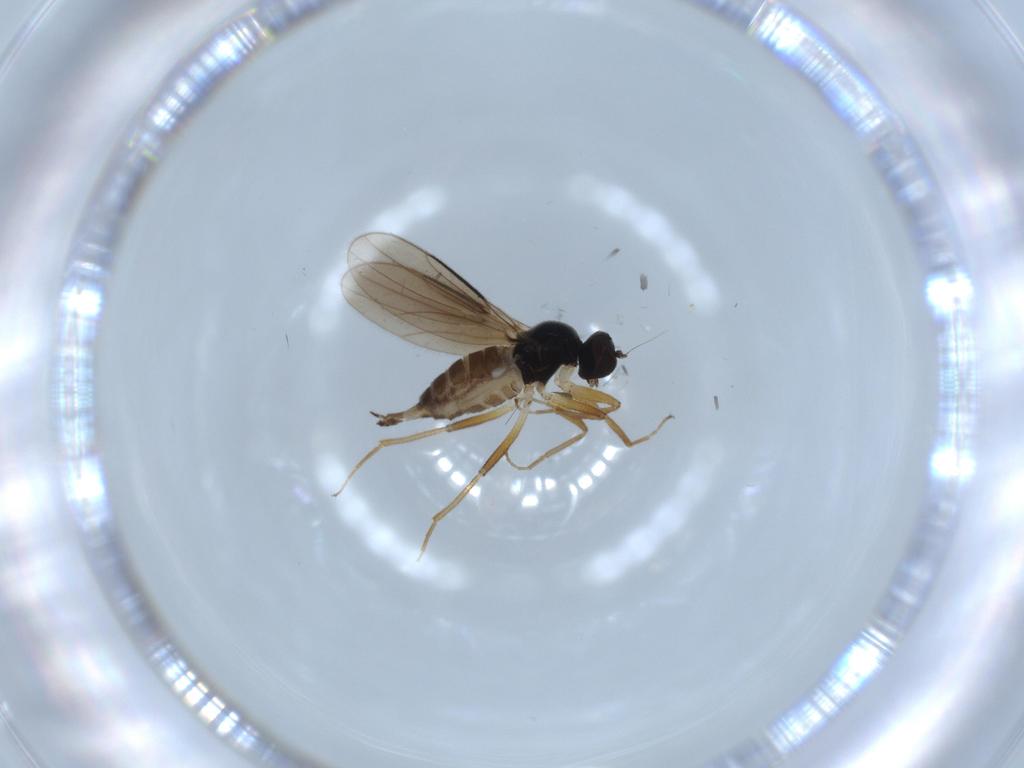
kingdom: Animalia
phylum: Arthropoda
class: Insecta
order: Diptera
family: Hybotidae
